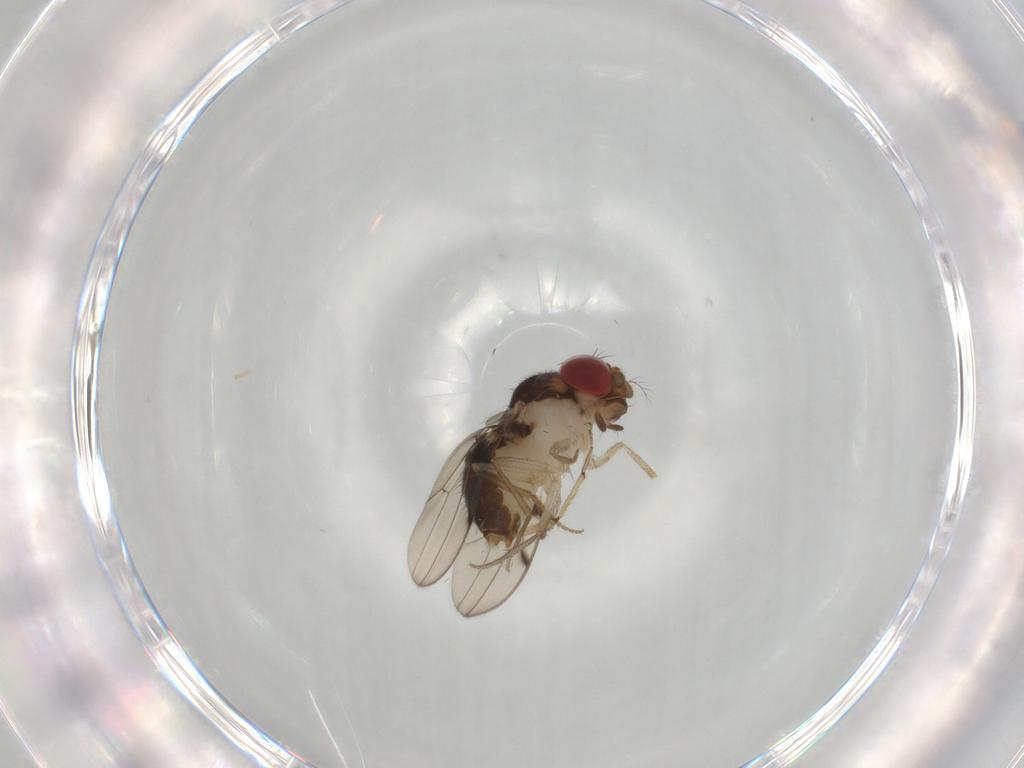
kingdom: Animalia
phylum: Arthropoda
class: Insecta
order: Diptera
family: Drosophilidae
